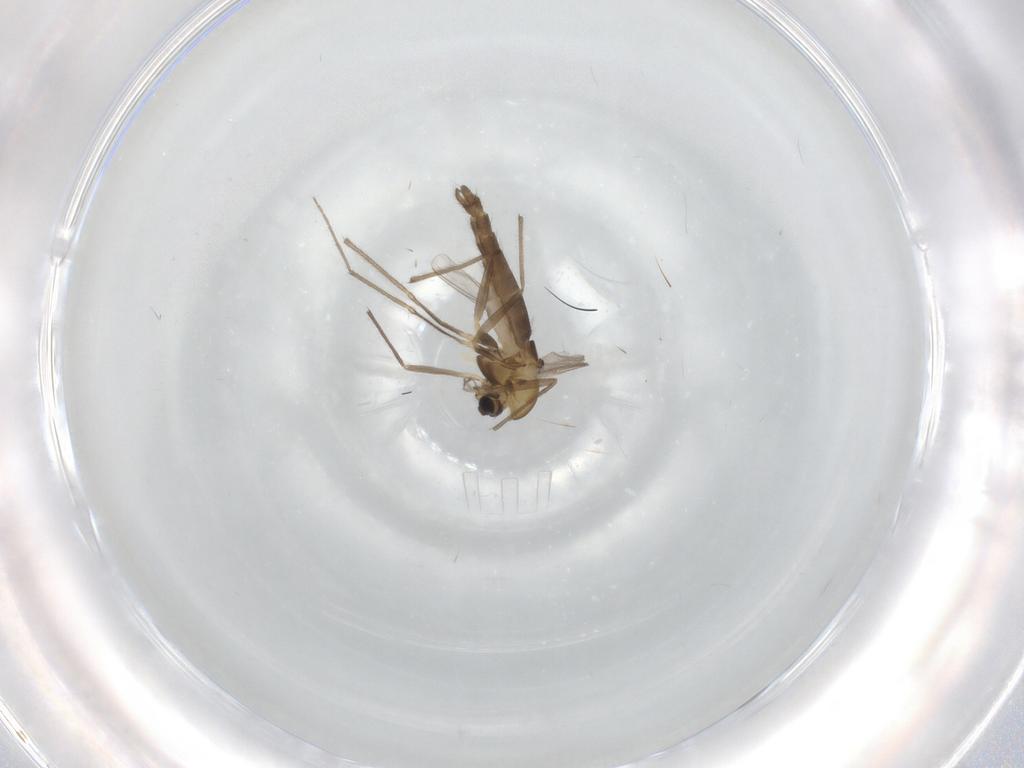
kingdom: Animalia
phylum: Arthropoda
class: Insecta
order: Diptera
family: Chironomidae
